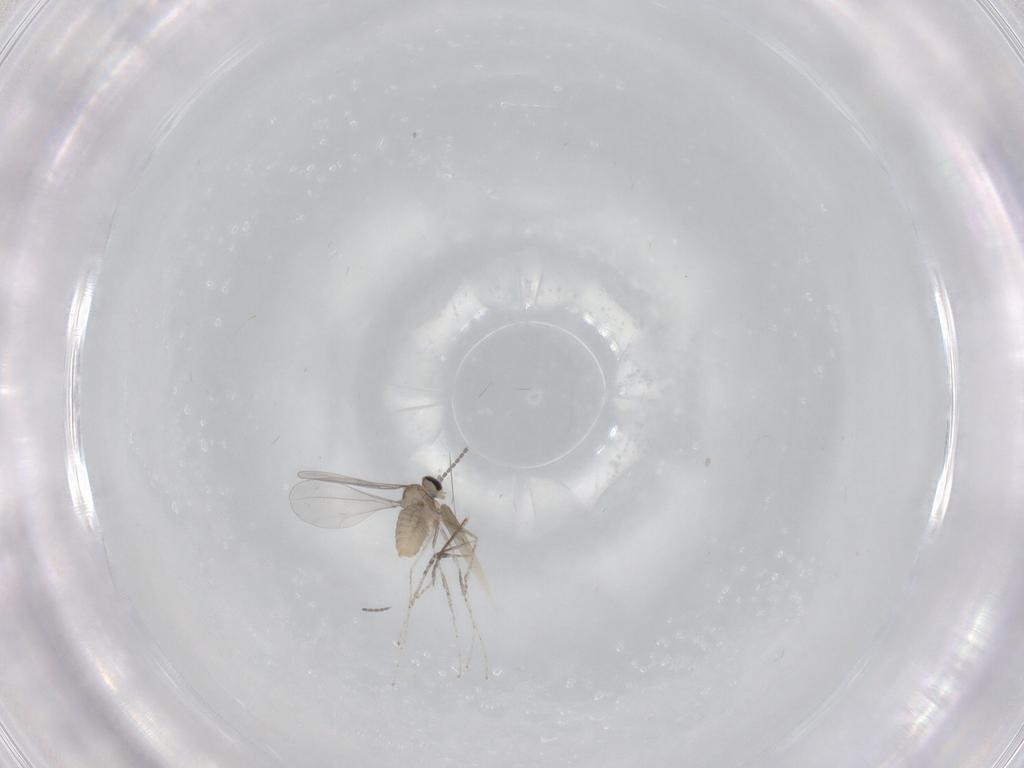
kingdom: Animalia
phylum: Arthropoda
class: Insecta
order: Diptera
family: Cecidomyiidae
